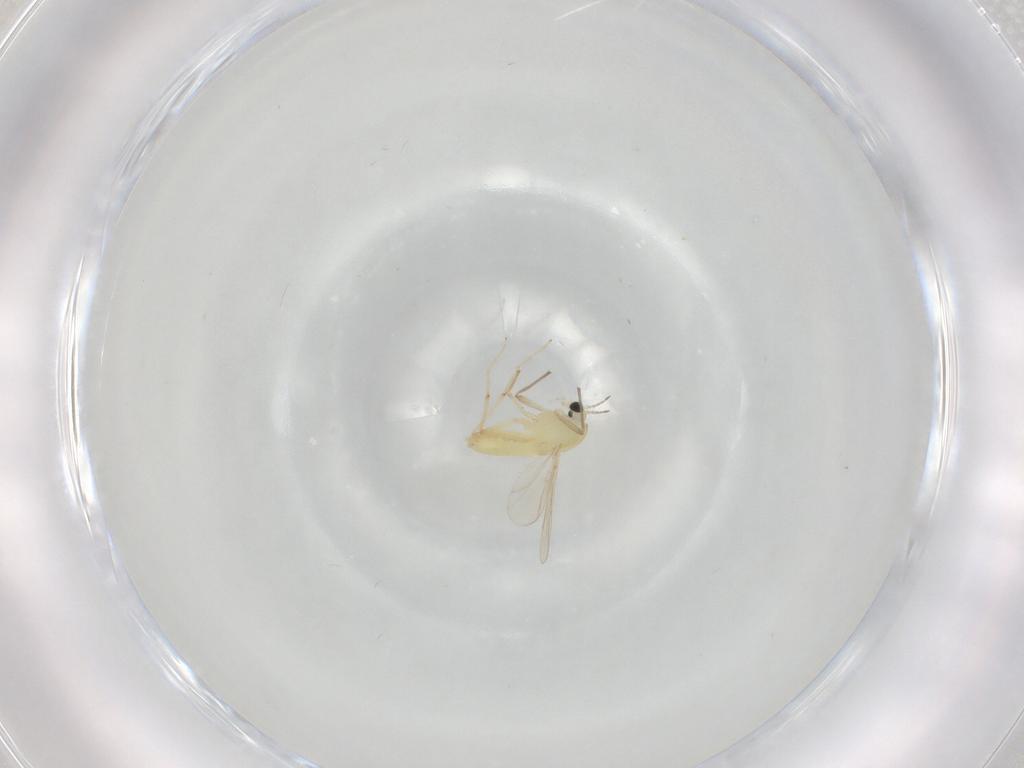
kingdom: Animalia
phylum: Arthropoda
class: Insecta
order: Diptera
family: Chironomidae
